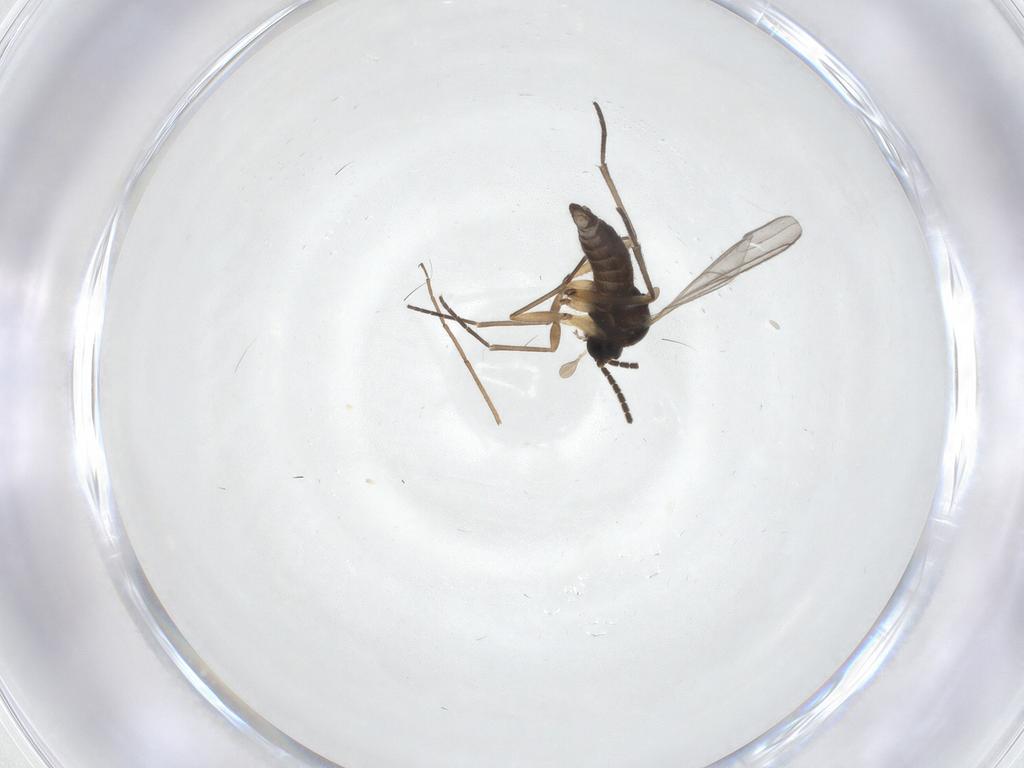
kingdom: Animalia
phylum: Arthropoda
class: Insecta
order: Diptera
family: Sciaridae
